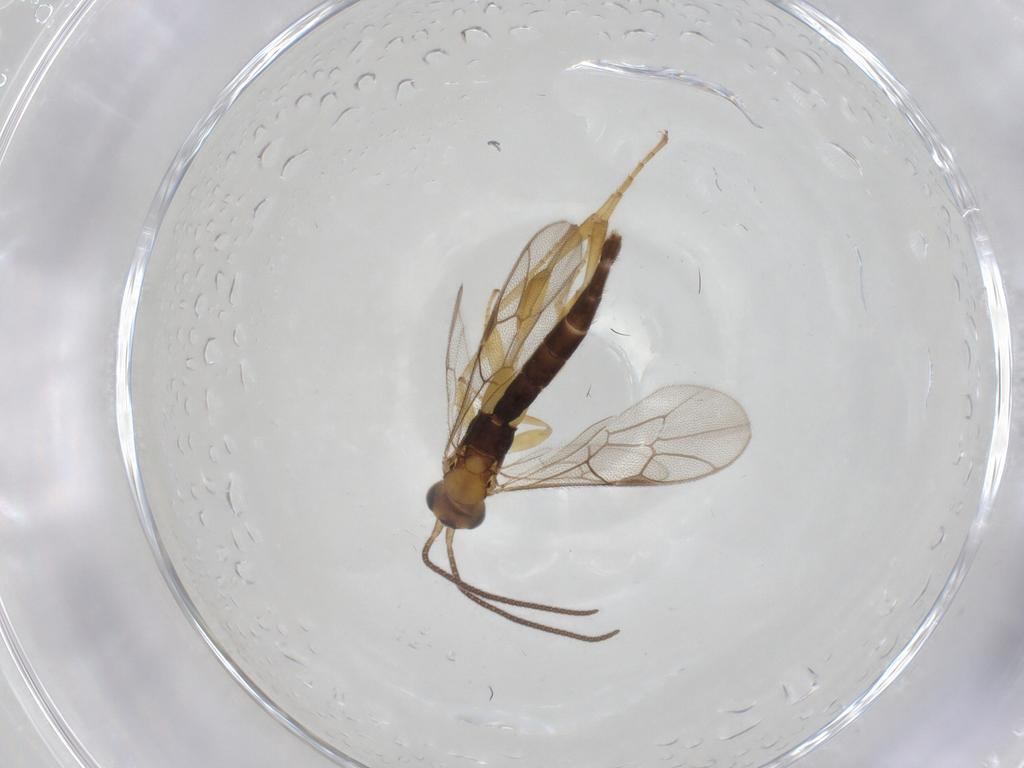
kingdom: Animalia
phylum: Arthropoda
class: Insecta
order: Hymenoptera
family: Ichneumonidae
